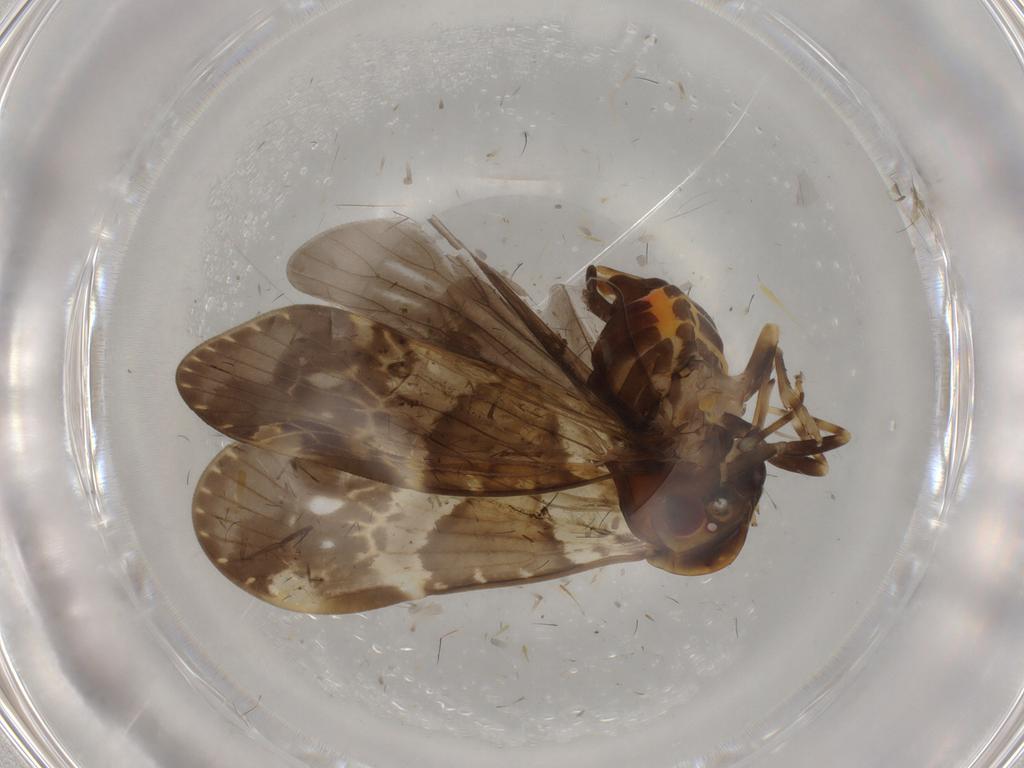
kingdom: Animalia
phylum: Arthropoda
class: Insecta
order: Hemiptera
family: Cixiidae
